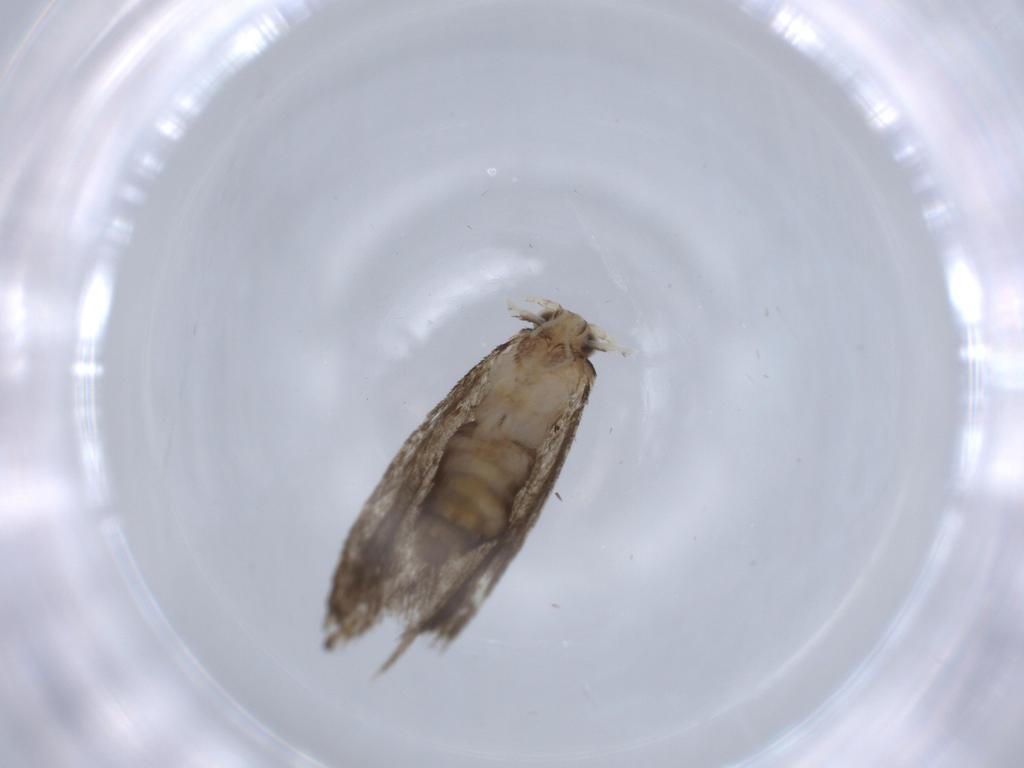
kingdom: Animalia
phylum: Arthropoda
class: Insecta
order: Lepidoptera
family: Tineidae
